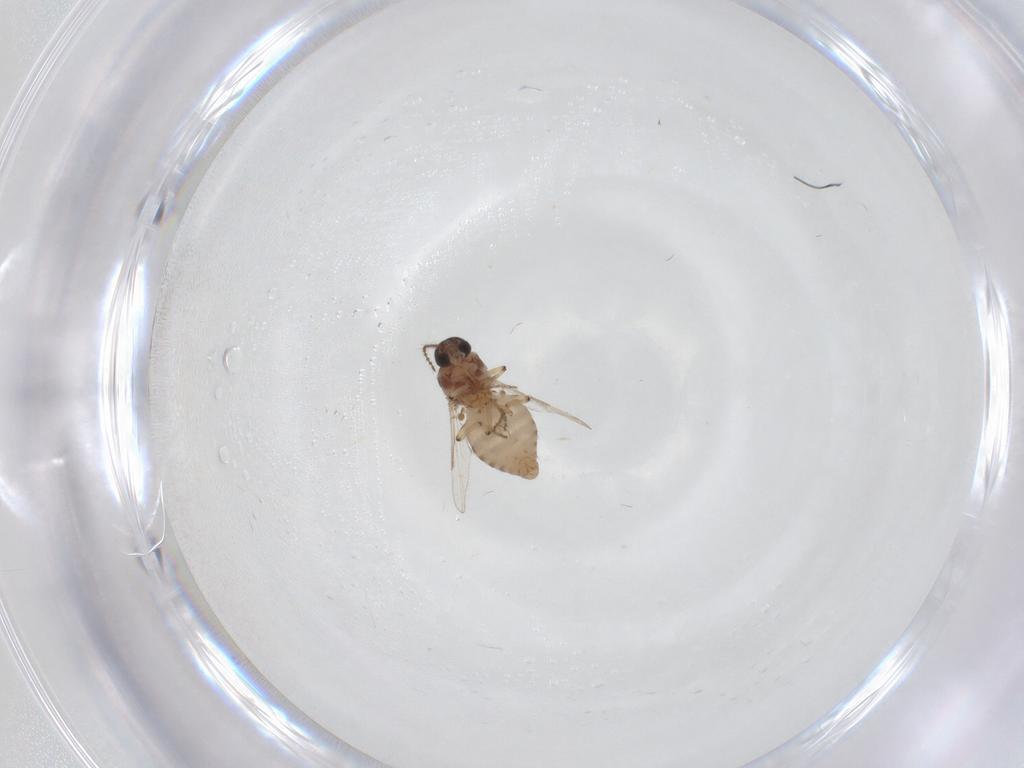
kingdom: Animalia
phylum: Arthropoda
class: Insecta
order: Diptera
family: Ceratopogonidae
